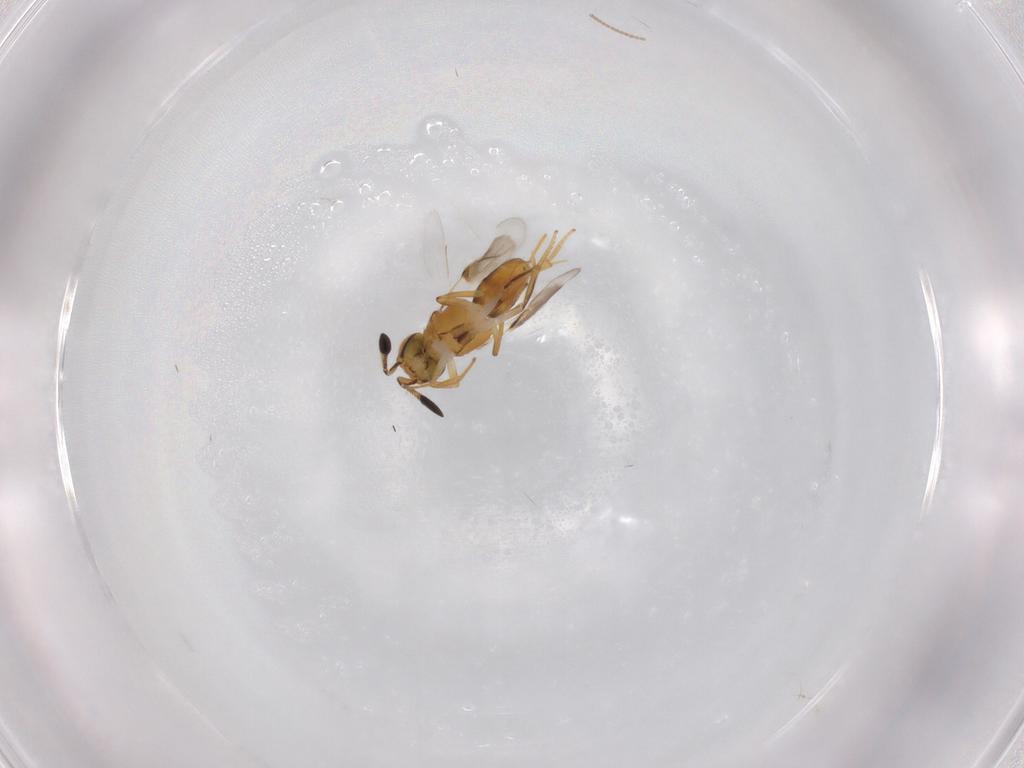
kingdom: Animalia
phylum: Arthropoda
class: Insecta
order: Hymenoptera
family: Encyrtidae
